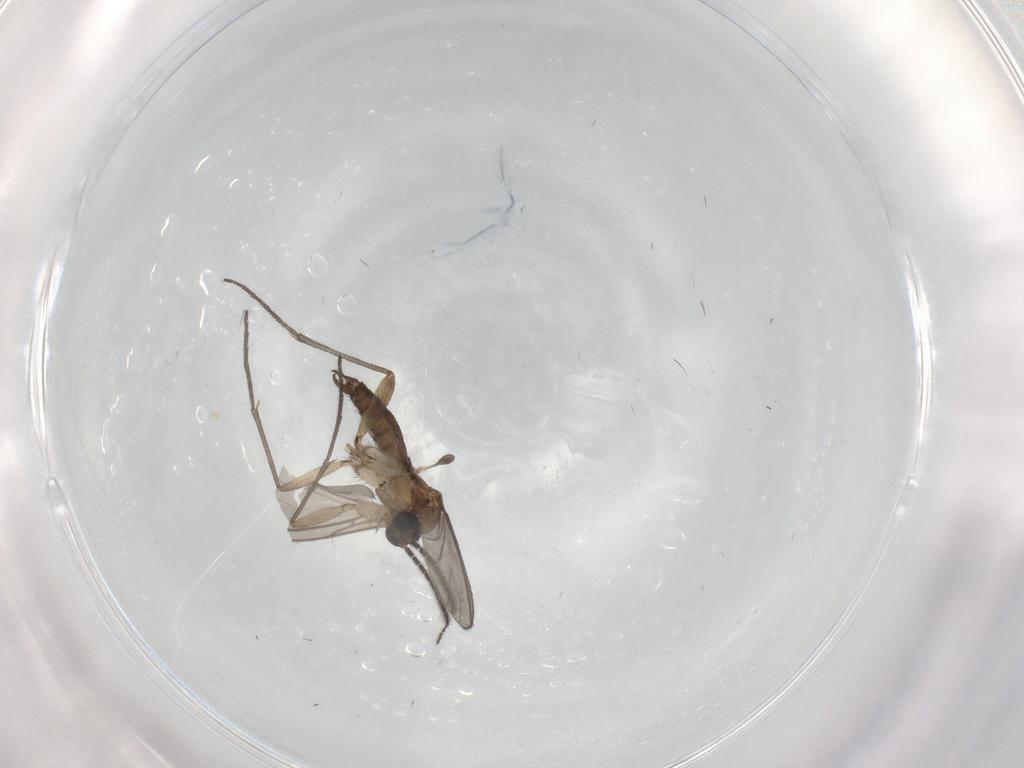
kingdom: Animalia
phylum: Arthropoda
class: Insecta
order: Diptera
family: Sciaridae
